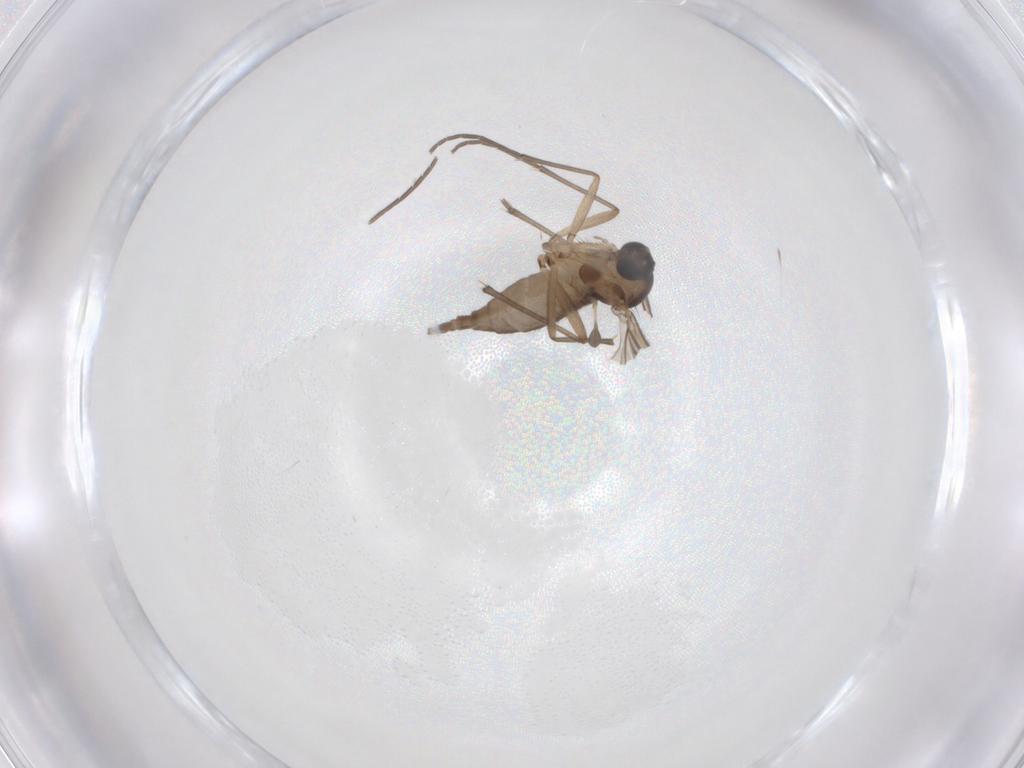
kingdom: Animalia
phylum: Arthropoda
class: Insecta
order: Diptera
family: Sciaridae
